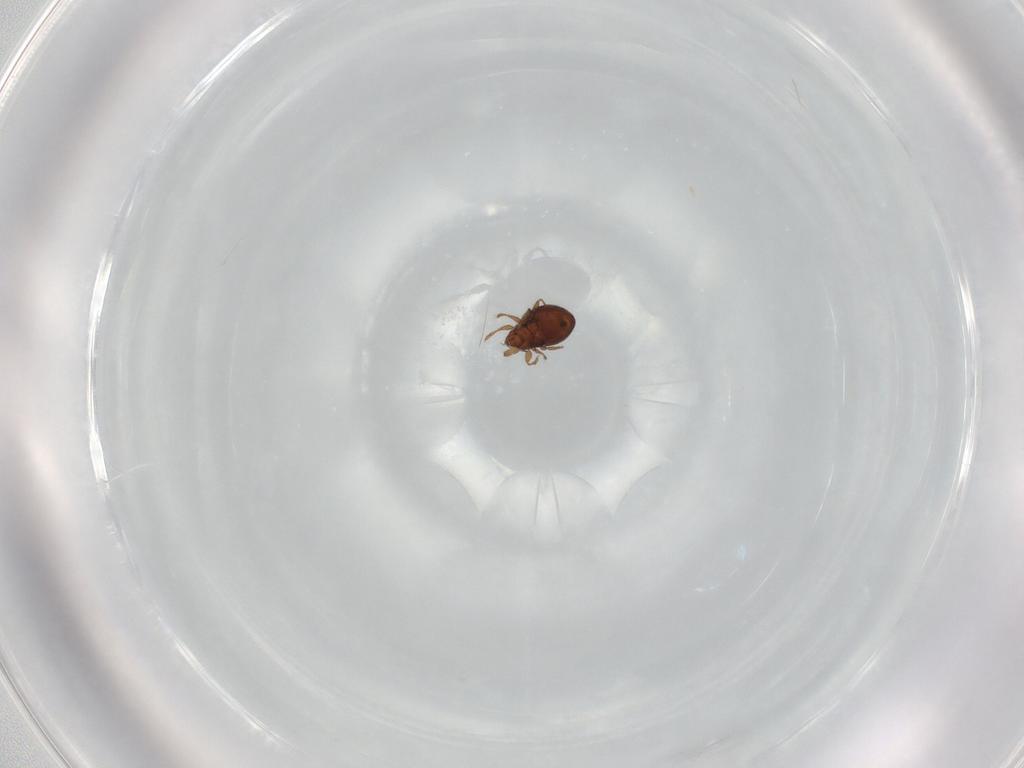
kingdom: Animalia
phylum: Arthropoda
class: Arachnida
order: Sarcoptiformes
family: Oribatulidae
